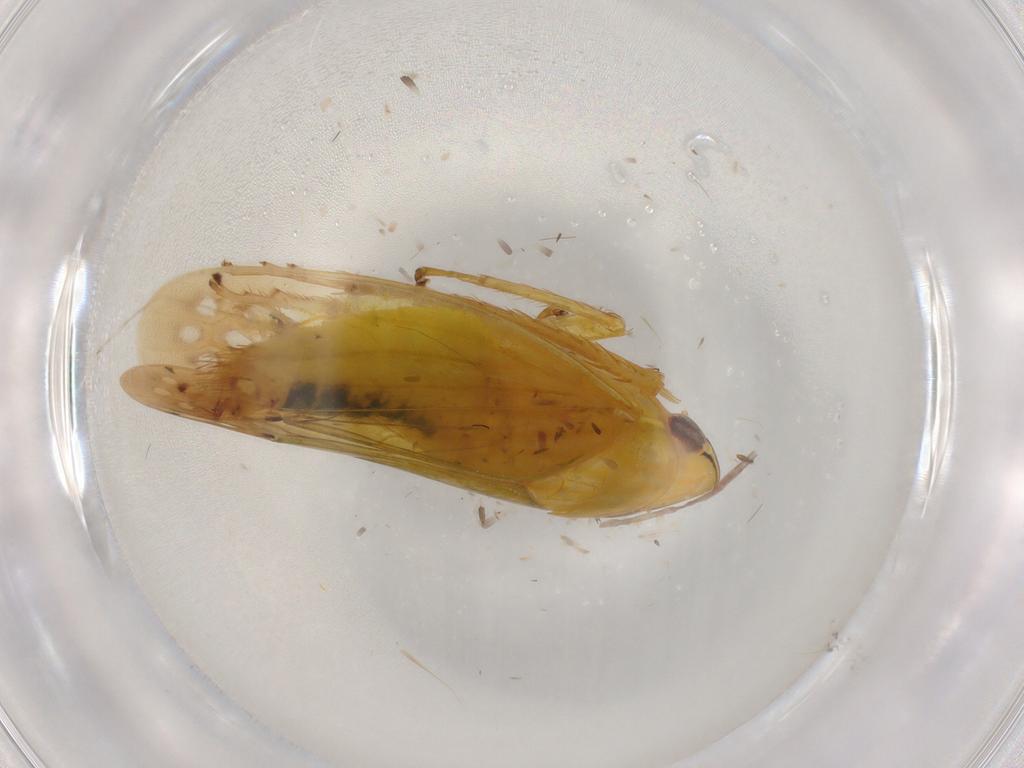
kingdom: Animalia
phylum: Arthropoda
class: Insecta
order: Hemiptera
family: Cicadellidae
